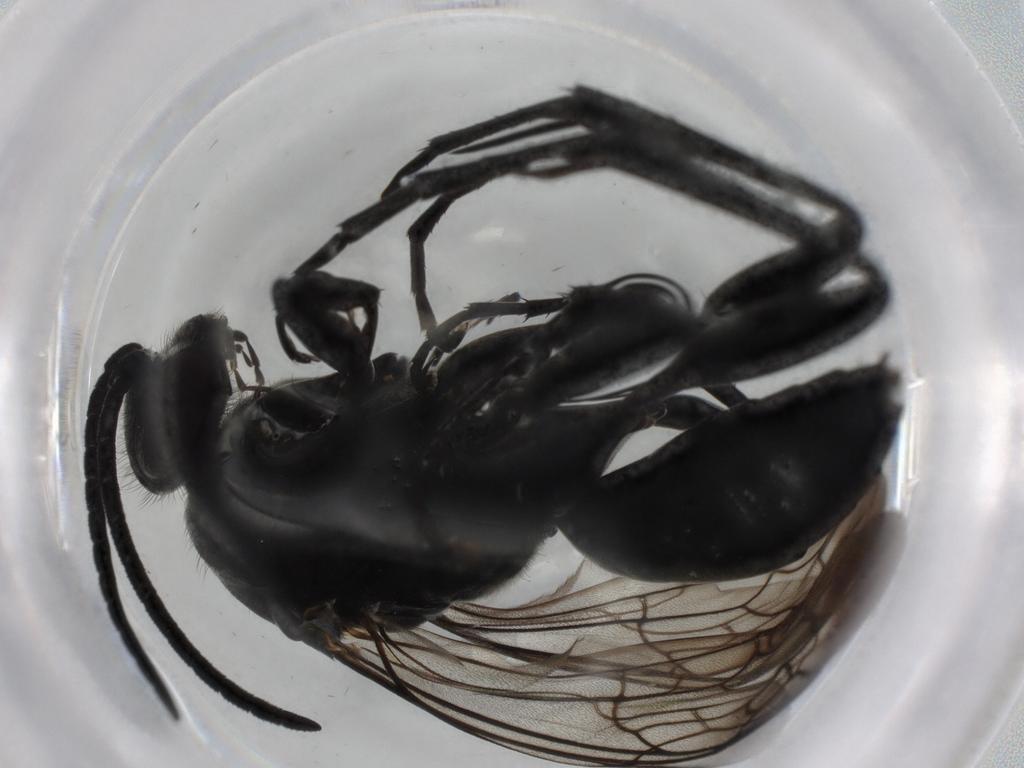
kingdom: Animalia
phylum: Arthropoda
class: Insecta
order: Hymenoptera
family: Pompilidae
